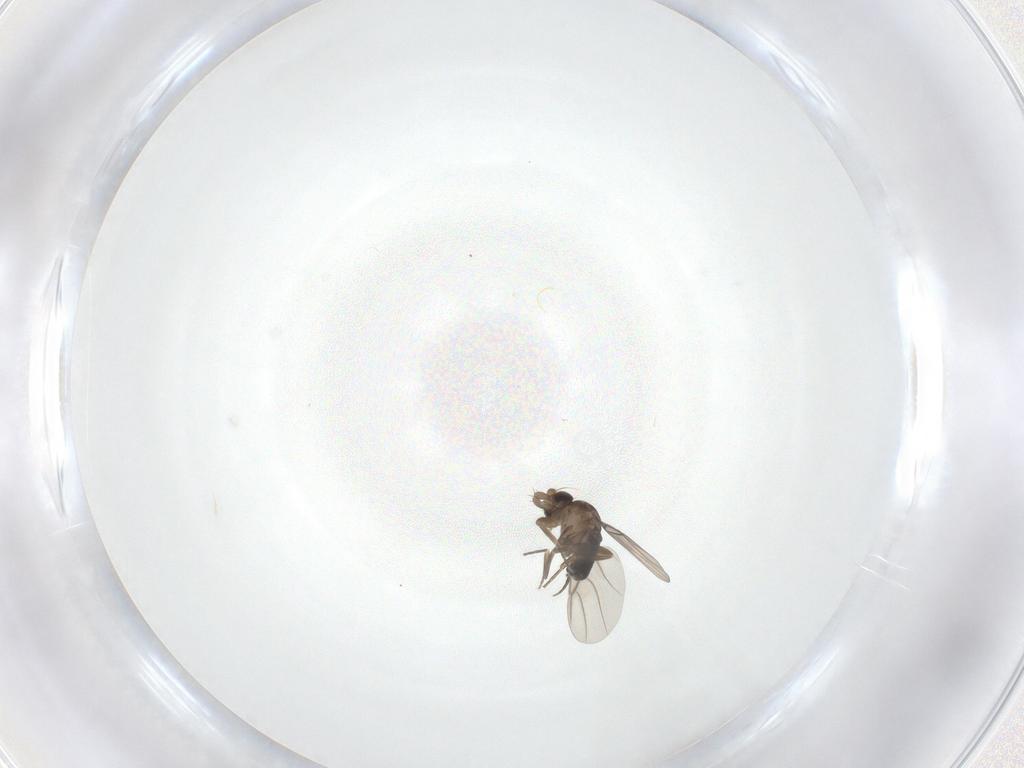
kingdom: Animalia
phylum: Arthropoda
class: Insecta
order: Diptera
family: Phoridae
